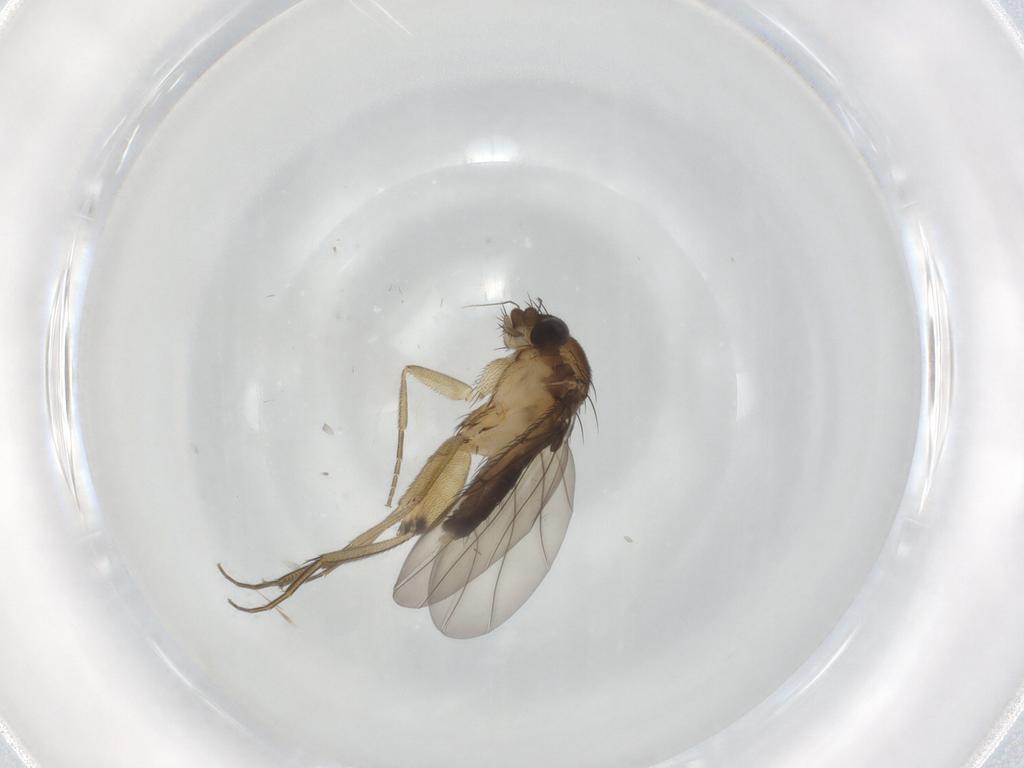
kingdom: Animalia
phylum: Arthropoda
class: Insecta
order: Diptera
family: Phoridae
